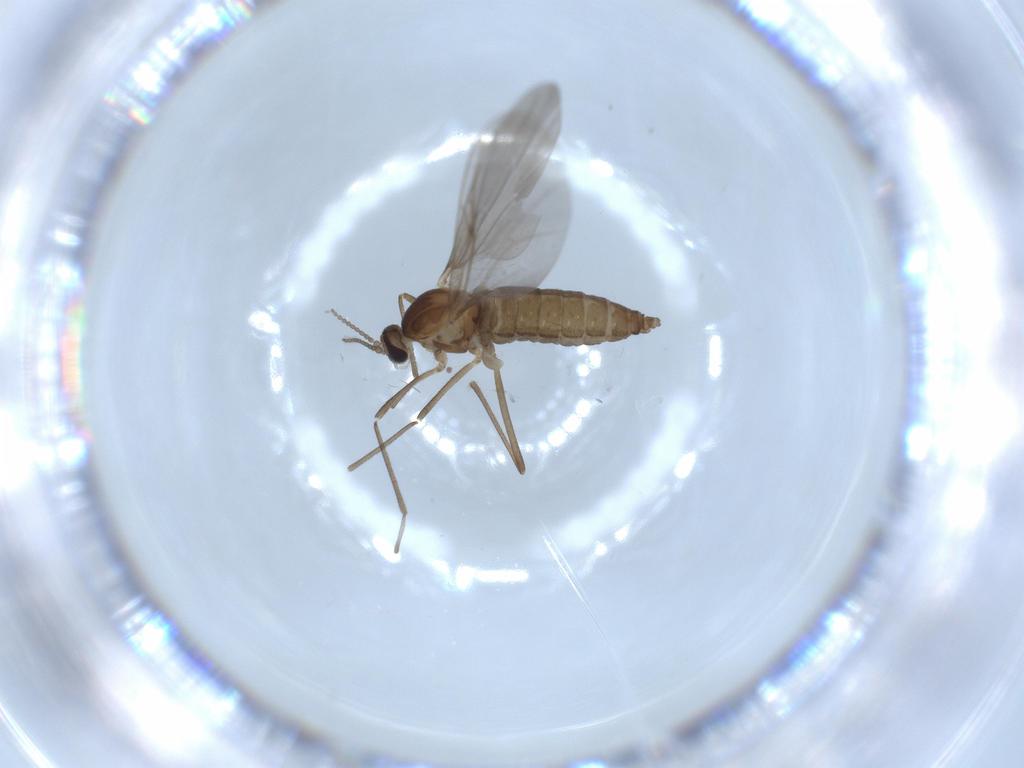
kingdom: Animalia
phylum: Arthropoda
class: Insecta
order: Diptera
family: Cecidomyiidae
